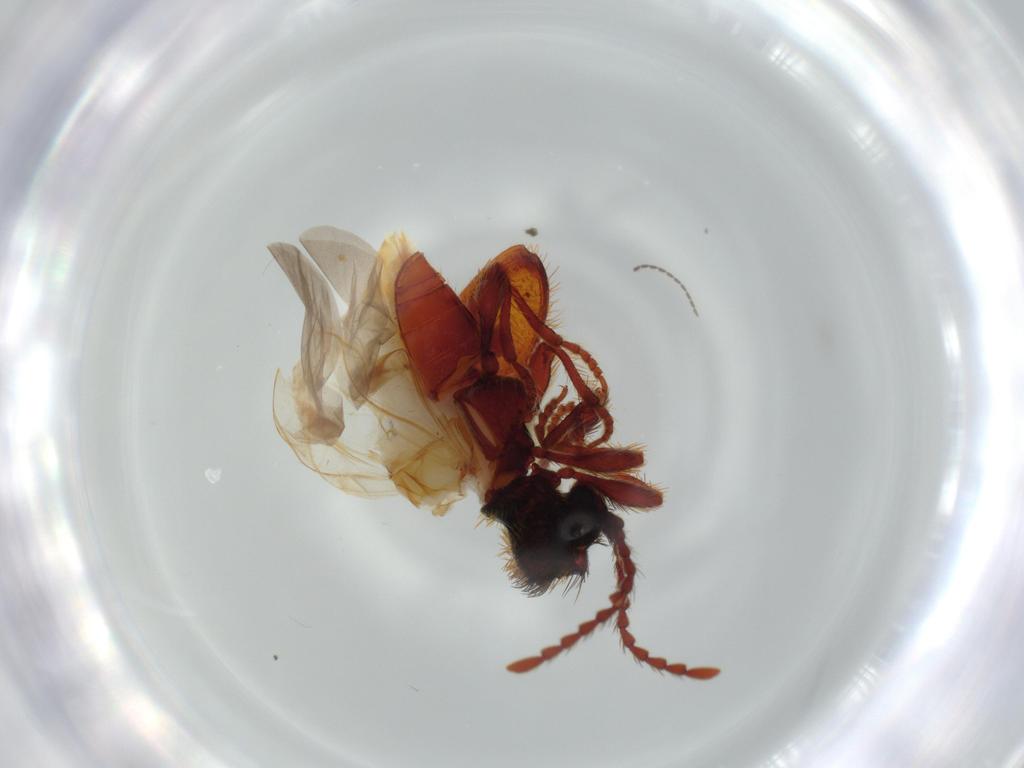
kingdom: Animalia
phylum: Arthropoda
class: Insecta
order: Coleoptera
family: Ptinidae
